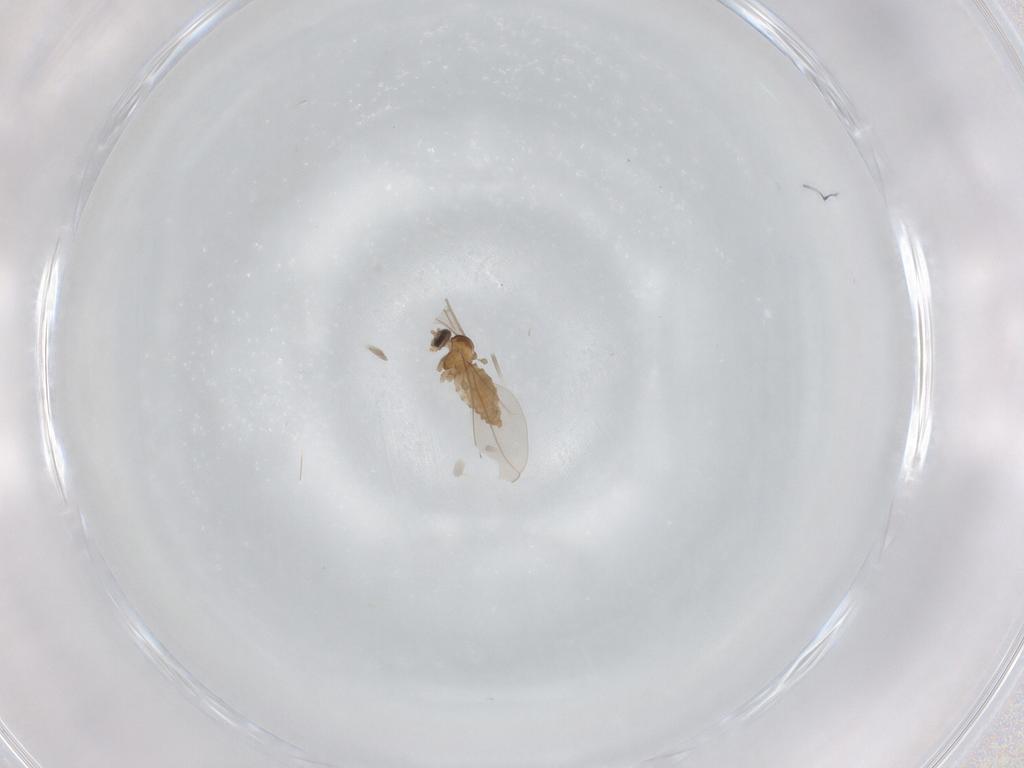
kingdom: Animalia
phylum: Arthropoda
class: Insecta
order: Diptera
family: Cecidomyiidae
